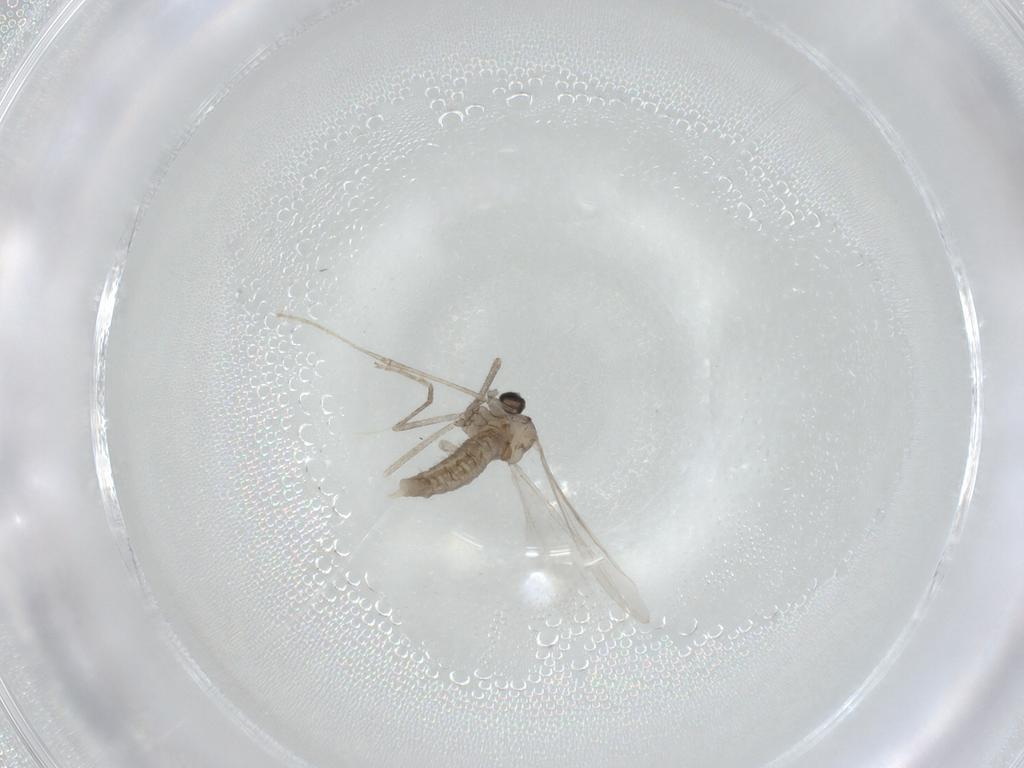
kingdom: Animalia
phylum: Arthropoda
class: Insecta
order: Diptera
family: Cecidomyiidae
